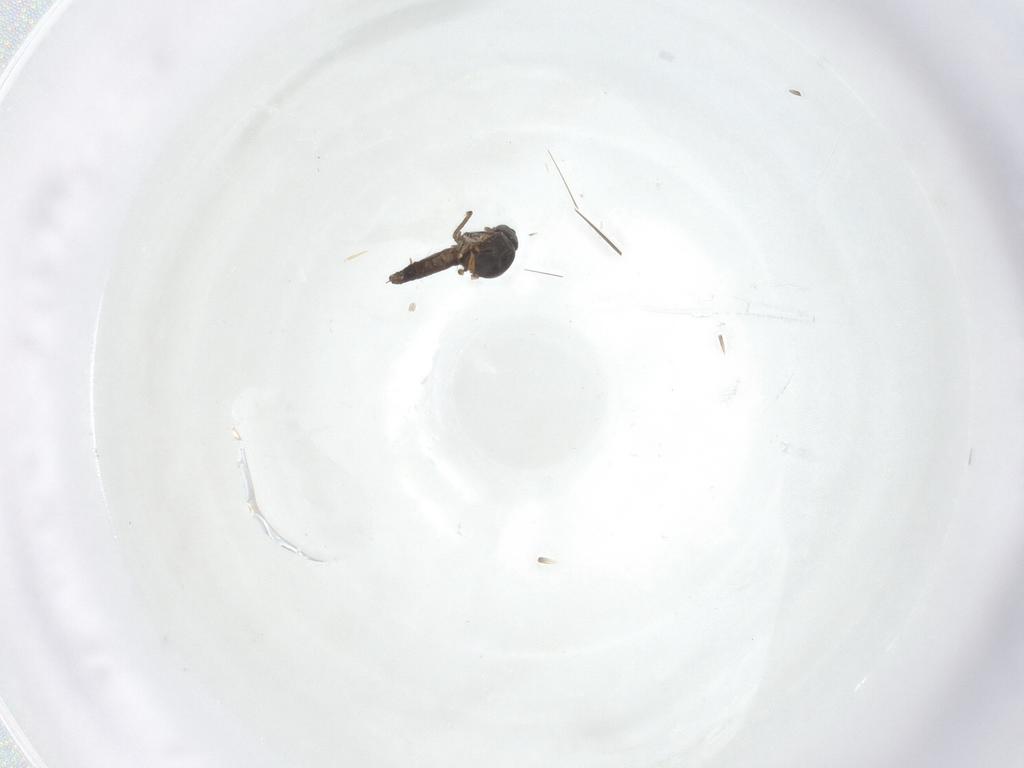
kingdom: Animalia
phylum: Arthropoda
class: Insecta
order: Diptera
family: Ceratopogonidae
